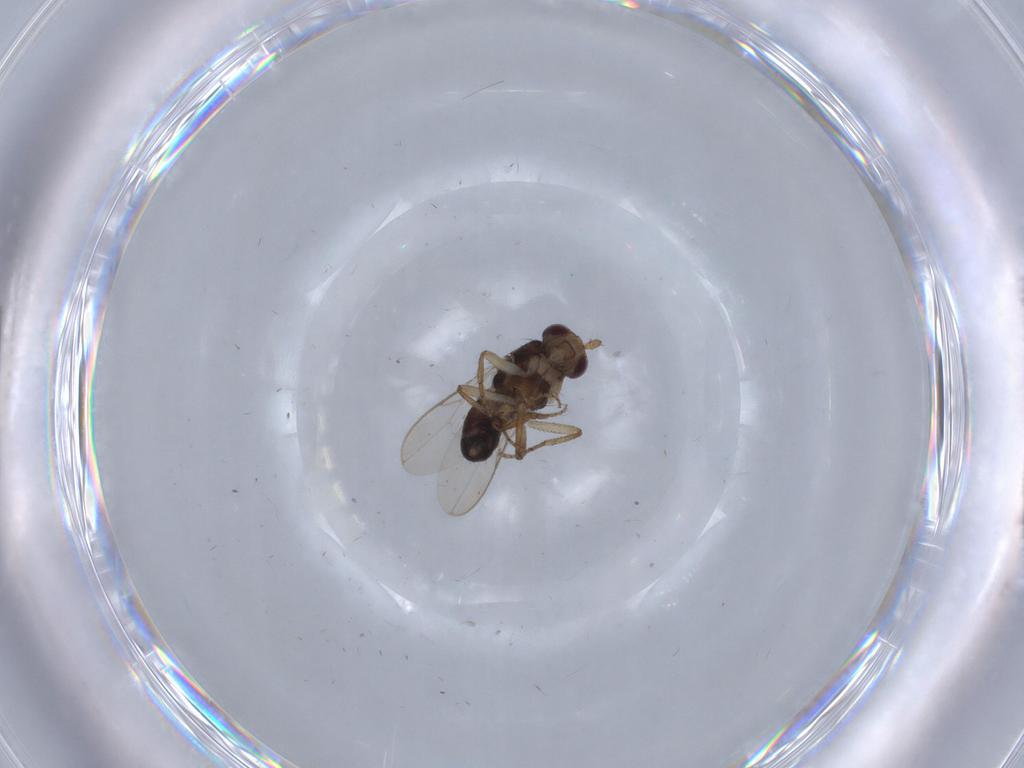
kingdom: Animalia
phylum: Arthropoda
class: Insecta
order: Diptera
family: Sphaeroceridae
